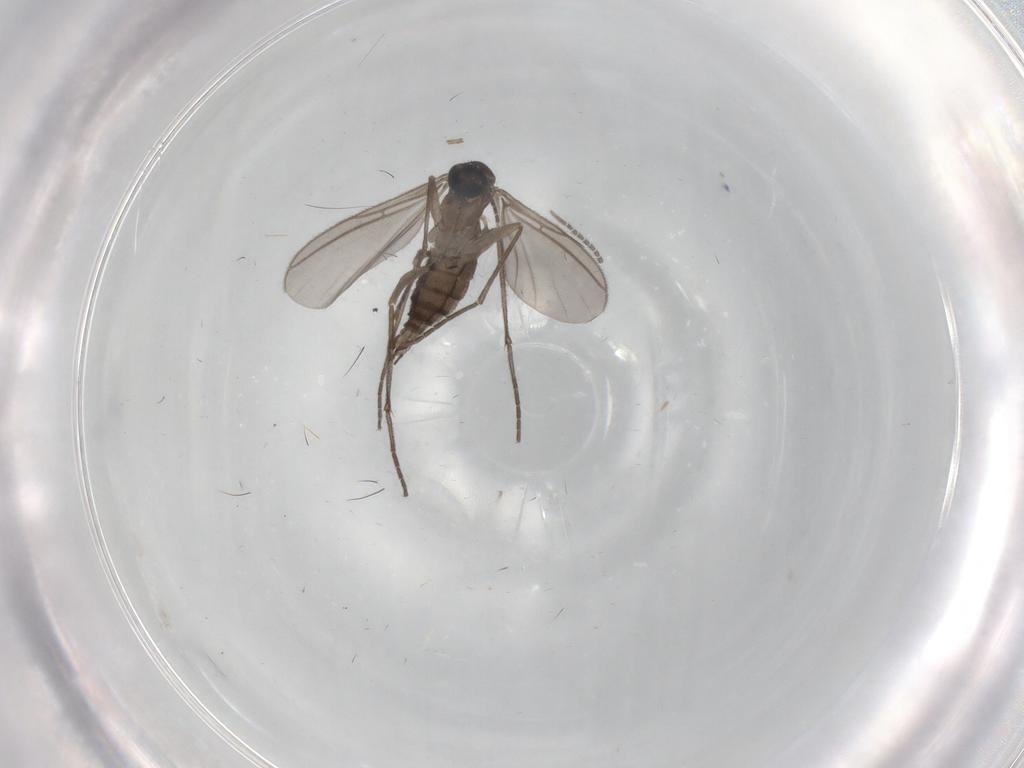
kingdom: Animalia
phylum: Arthropoda
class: Insecta
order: Diptera
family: Sciaridae
